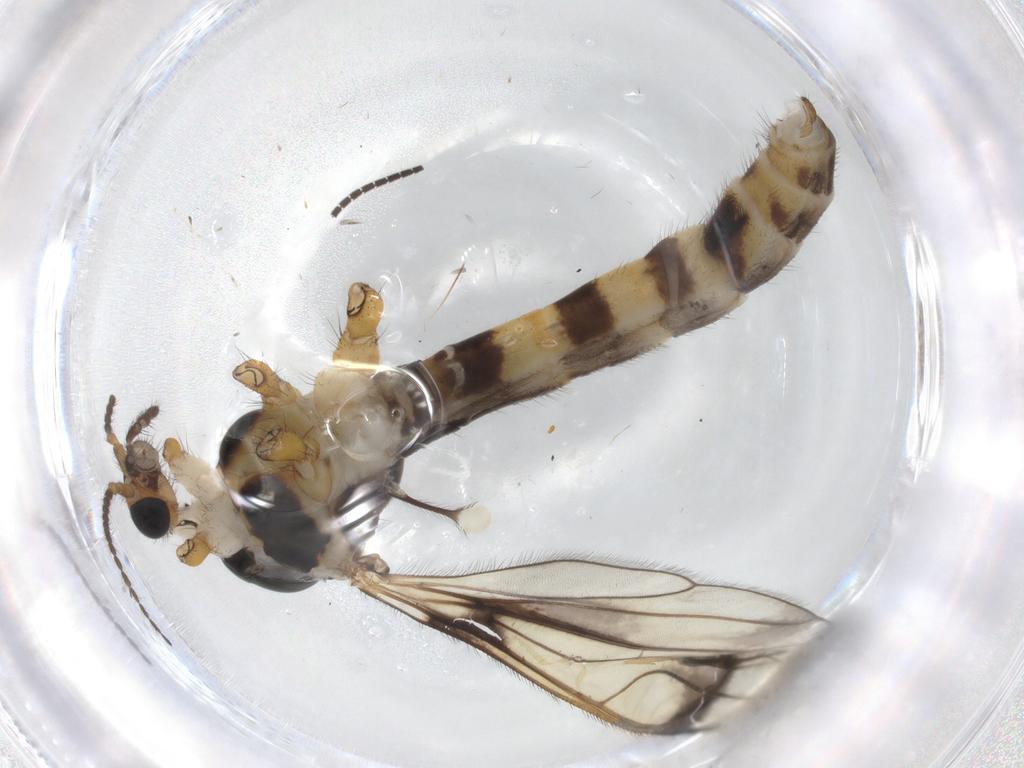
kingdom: Animalia
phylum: Arthropoda
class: Insecta
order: Diptera
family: Limoniidae
